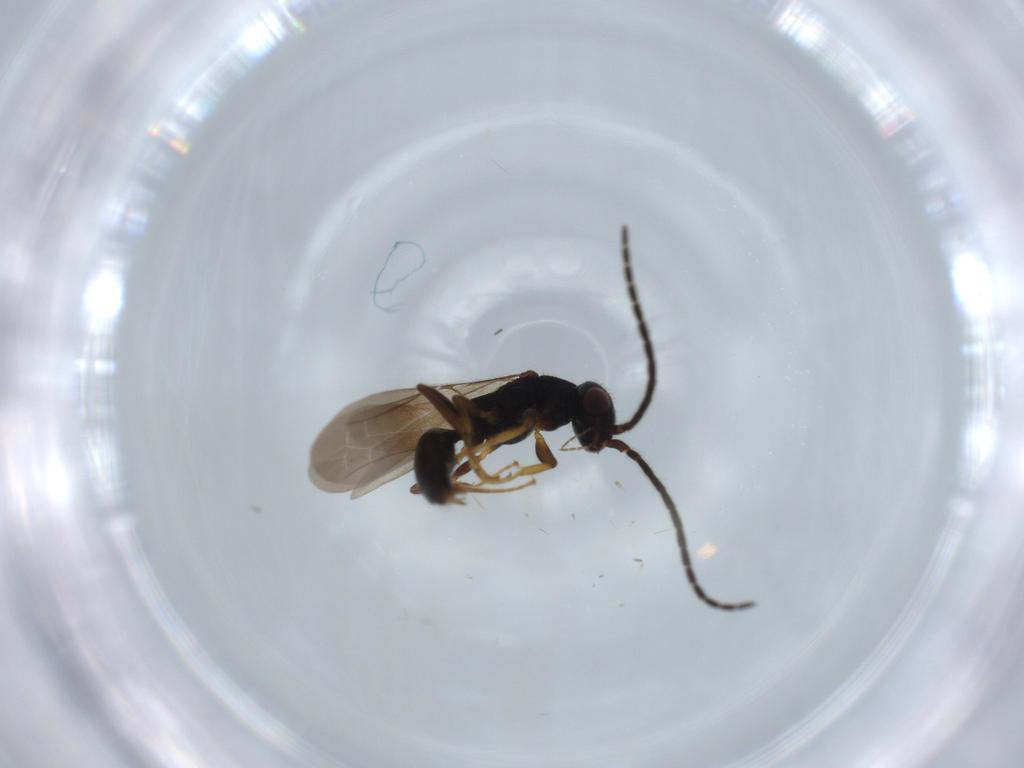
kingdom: Animalia
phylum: Arthropoda
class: Insecta
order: Hymenoptera
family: Bethylidae
